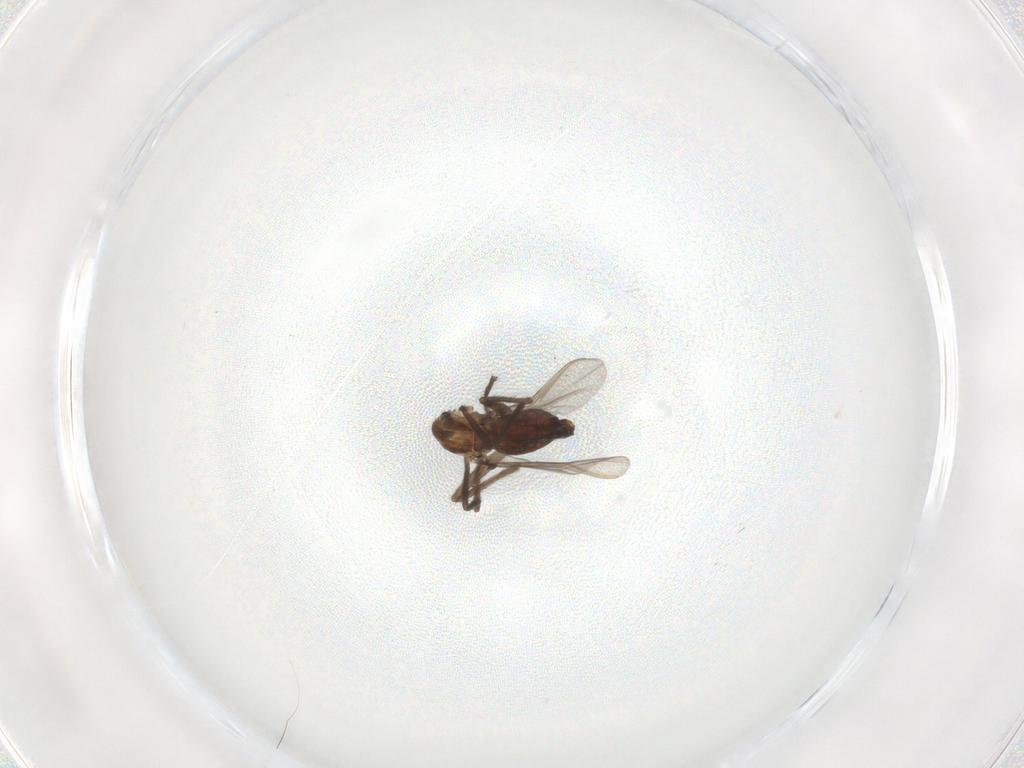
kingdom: Animalia
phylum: Arthropoda
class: Insecta
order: Diptera
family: Chironomidae
